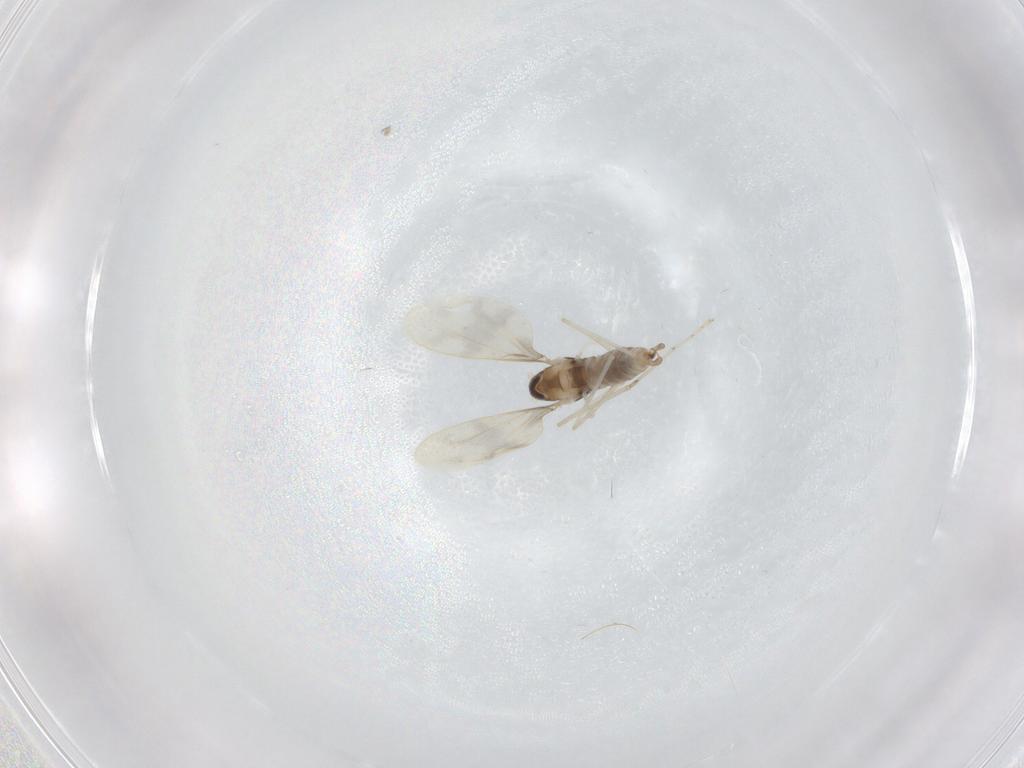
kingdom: Animalia
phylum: Arthropoda
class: Insecta
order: Diptera
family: Cecidomyiidae
